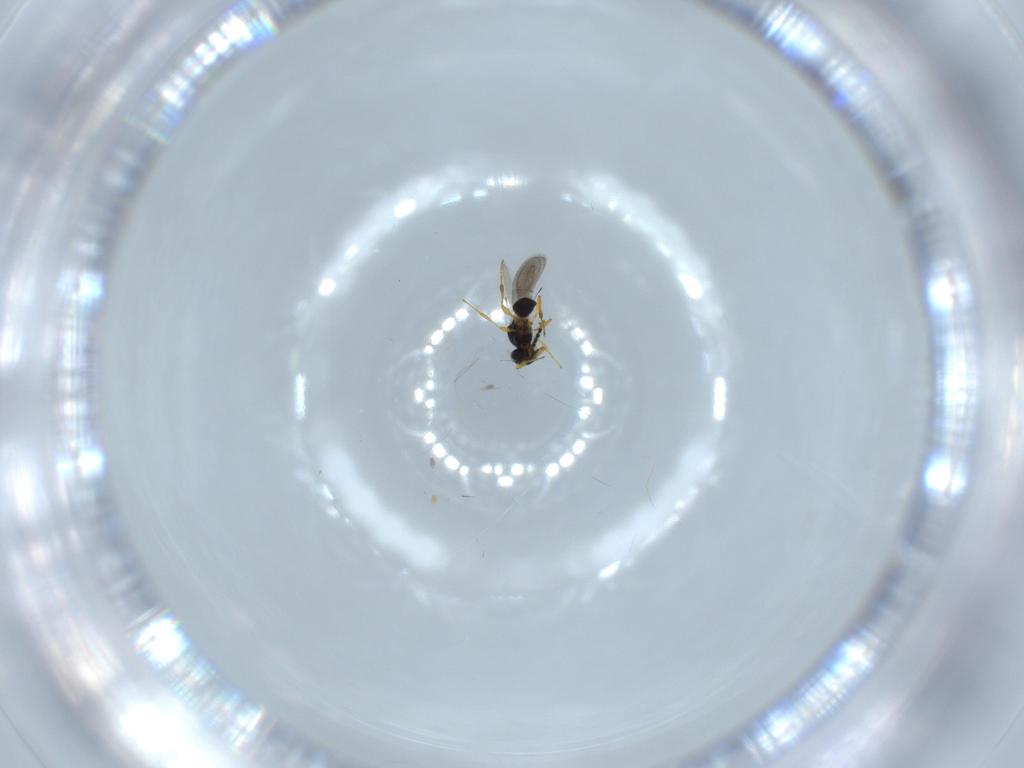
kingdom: Animalia
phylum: Arthropoda
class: Insecta
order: Hymenoptera
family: Platygastridae
